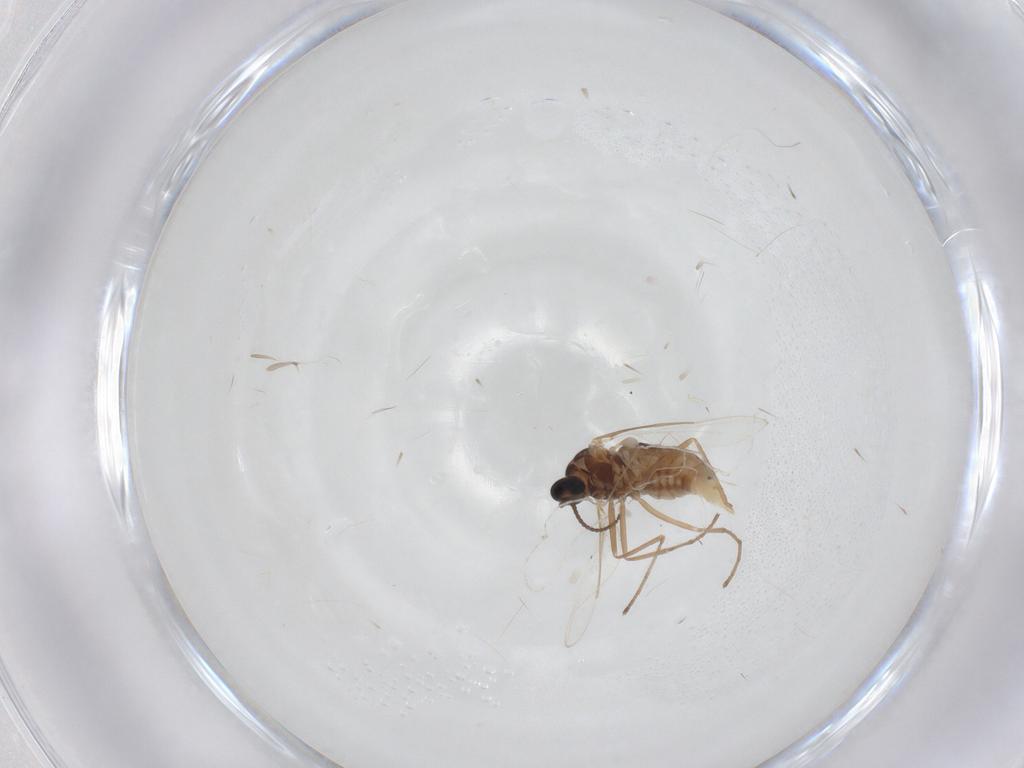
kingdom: Animalia
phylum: Arthropoda
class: Insecta
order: Diptera
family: Cecidomyiidae
